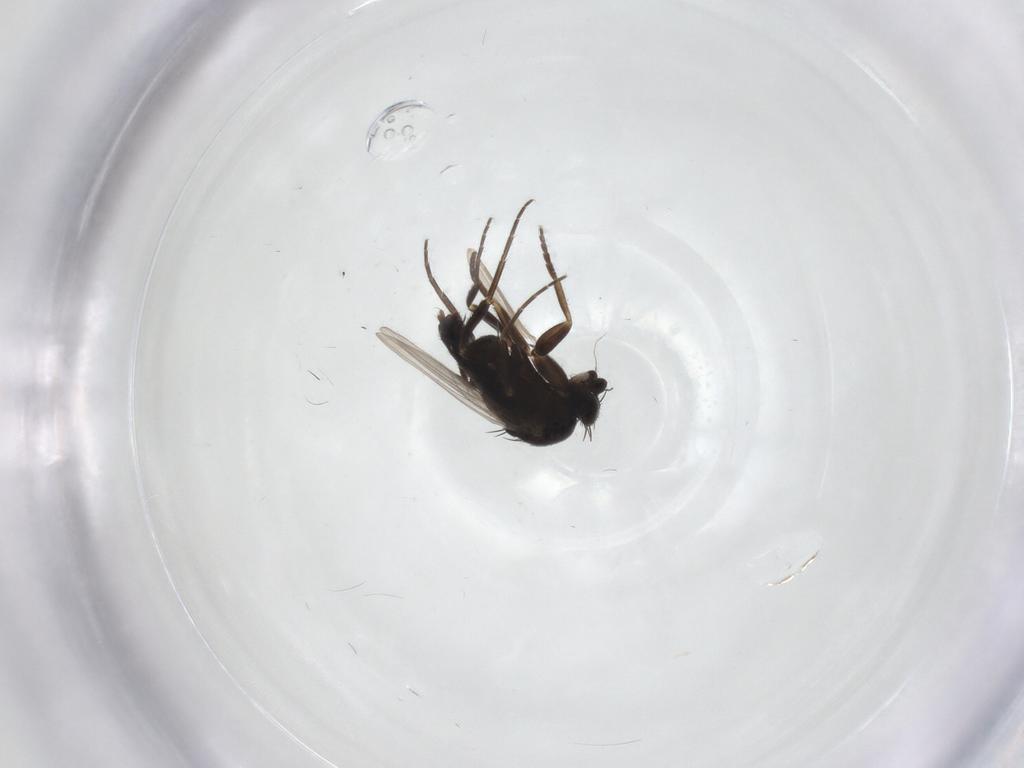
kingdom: Animalia
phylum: Arthropoda
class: Insecta
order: Diptera
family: Phoridae
